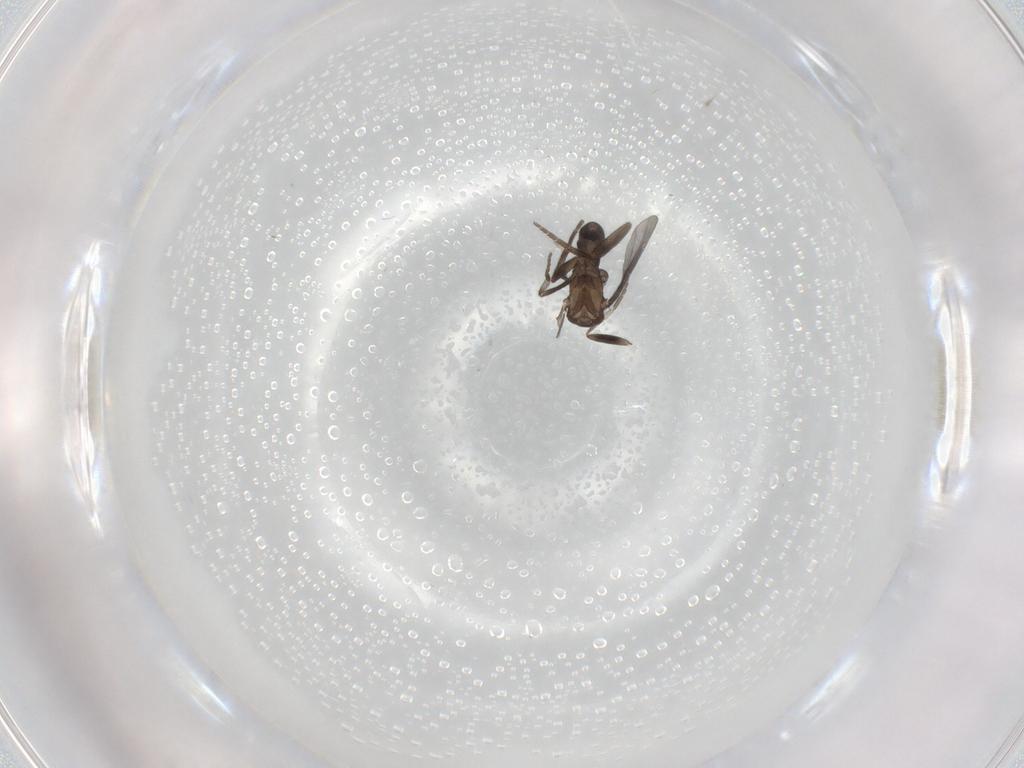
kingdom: Animalia
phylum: Arthropoda
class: Insecta
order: Diptera
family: Phoridae
